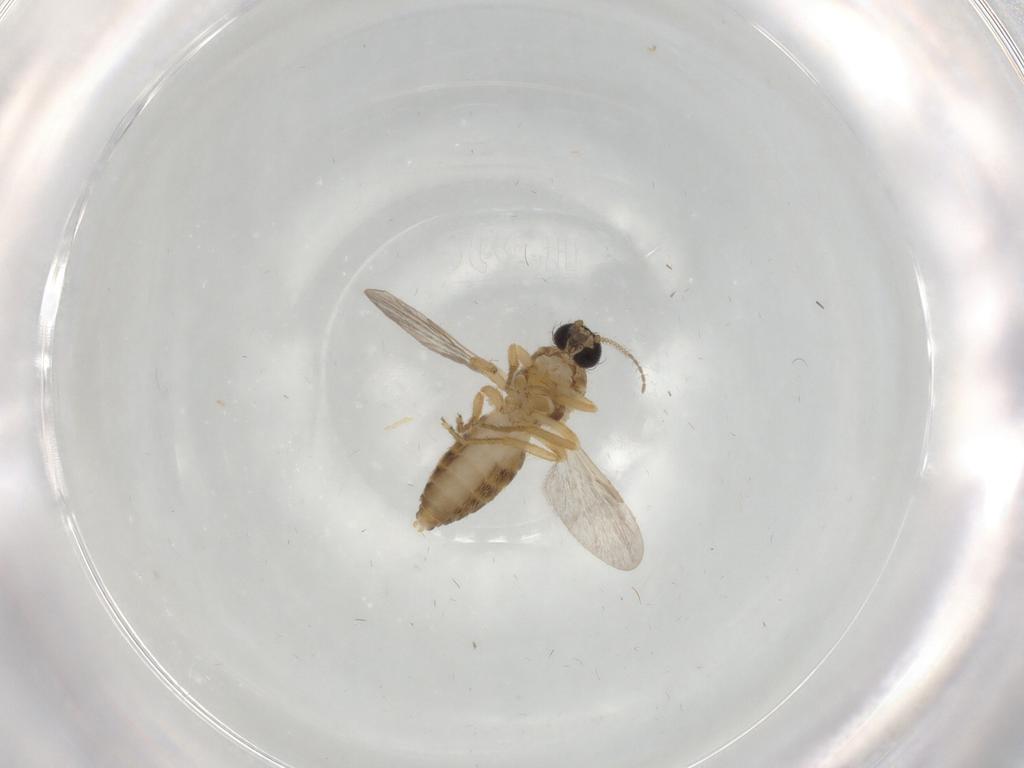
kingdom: Animalia
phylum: Arthropoda
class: Insecta
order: Diptera
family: Ceratopogonidae
